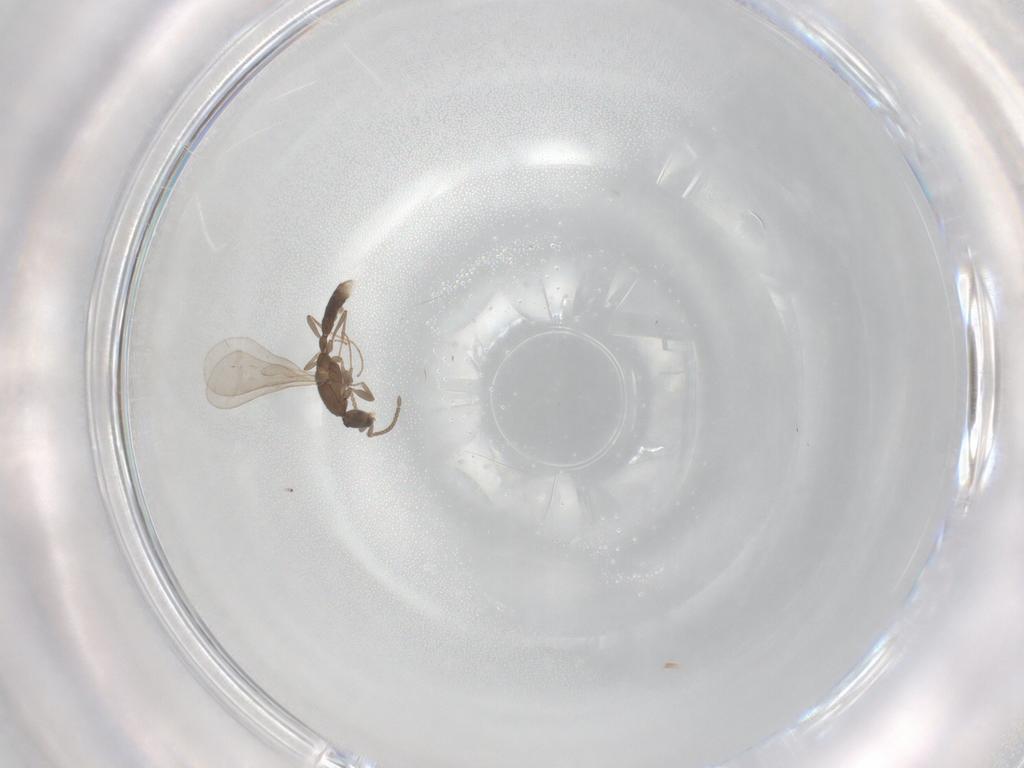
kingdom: Animalia
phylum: Arthropoda
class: Insecta
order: Hymenoptera
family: Formicidae
